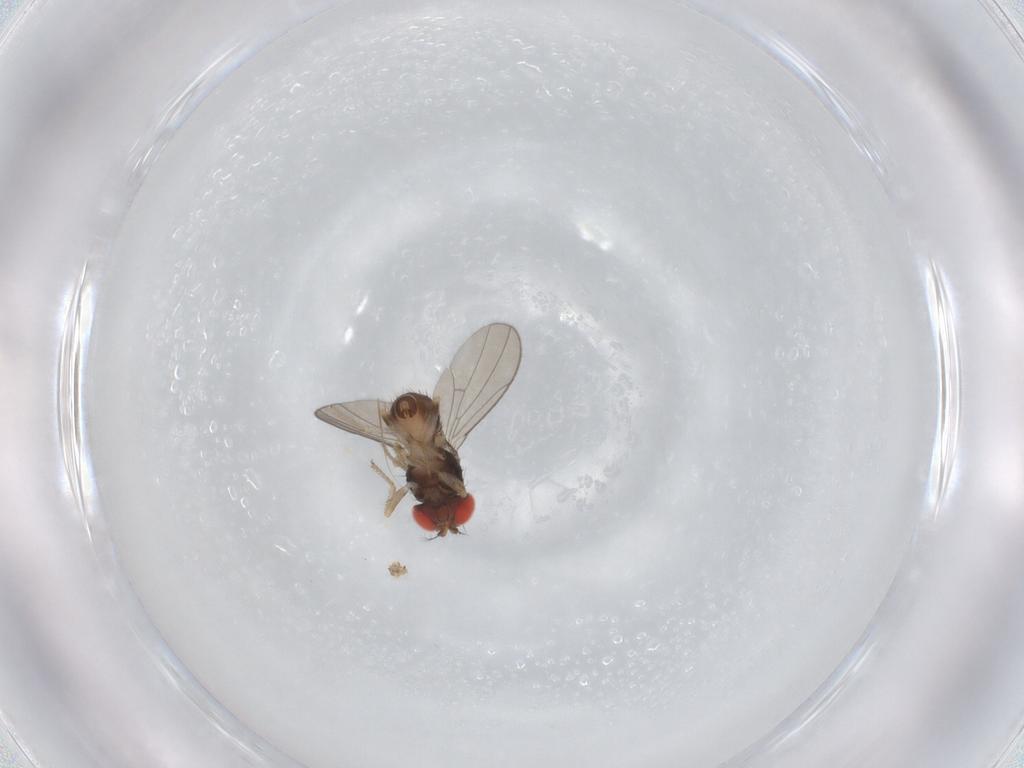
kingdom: Animalia
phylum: Arthropoda
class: Insecta
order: Diptera
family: Drosophilidae
